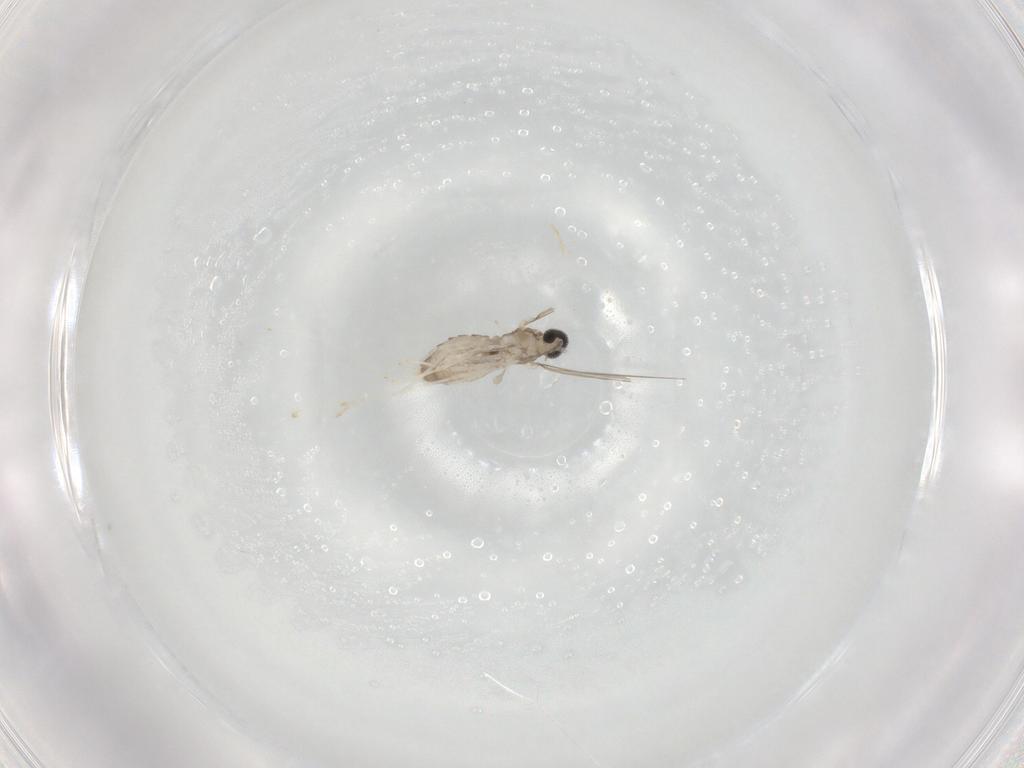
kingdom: Animalia
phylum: Arthropoda
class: Insecta
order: Diptera
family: Cecidomyiidae
